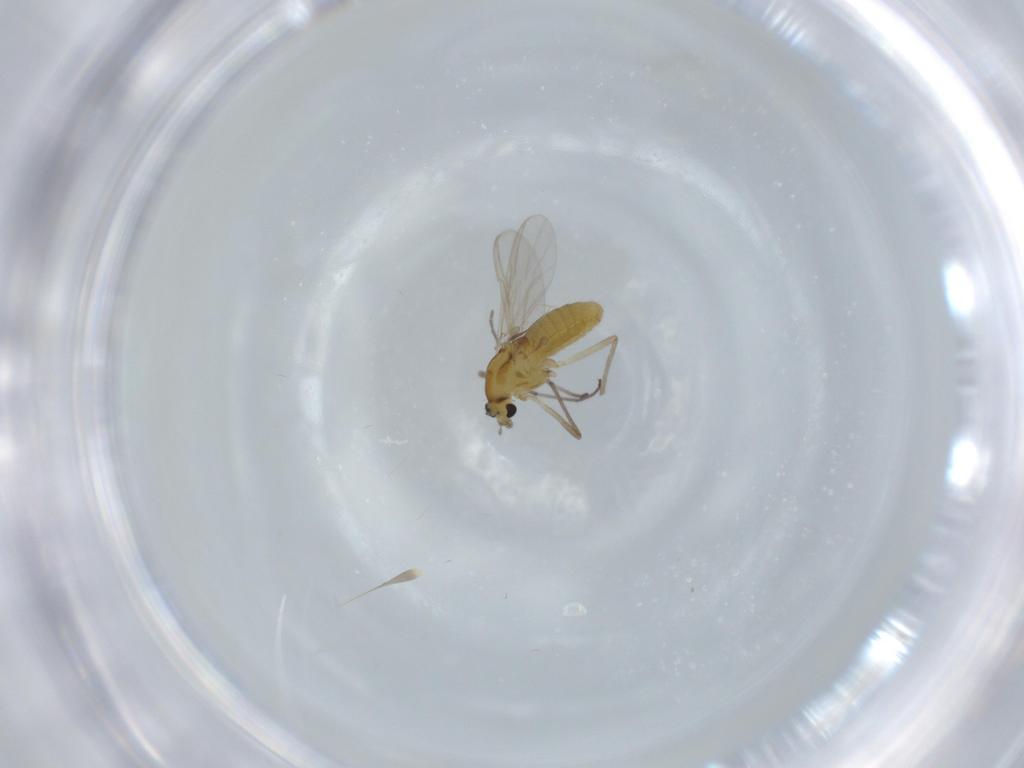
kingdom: Animalia
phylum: Arthropoda
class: Insecta
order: Diptera
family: Chironomidae
